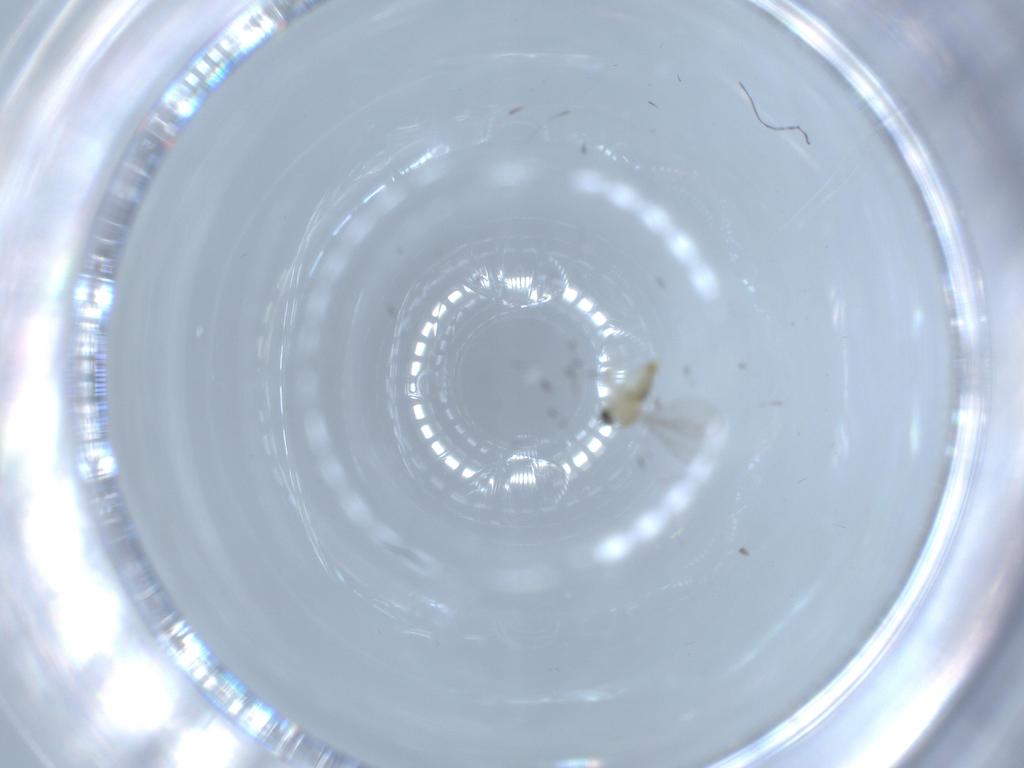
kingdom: Animalia
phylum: Arthropoda
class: Insecta
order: Diptera
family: Cecidomyiidae
